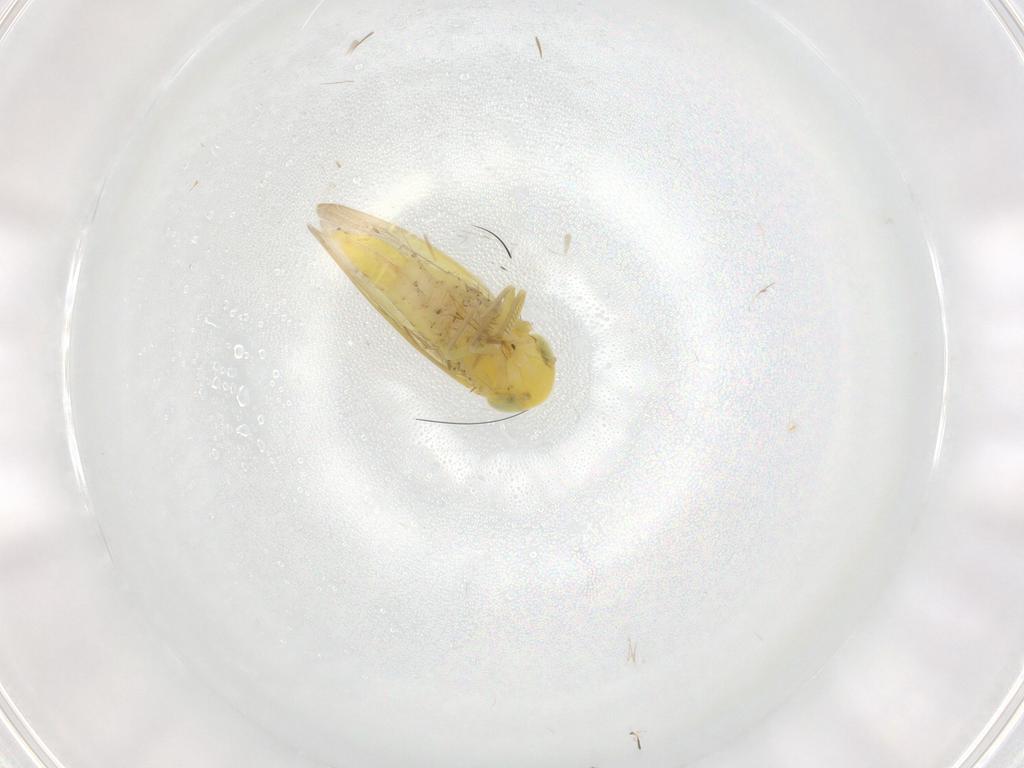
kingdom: Animalia
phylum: Arthropoda
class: Insecta
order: Hemiptera
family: Cicadellidae
